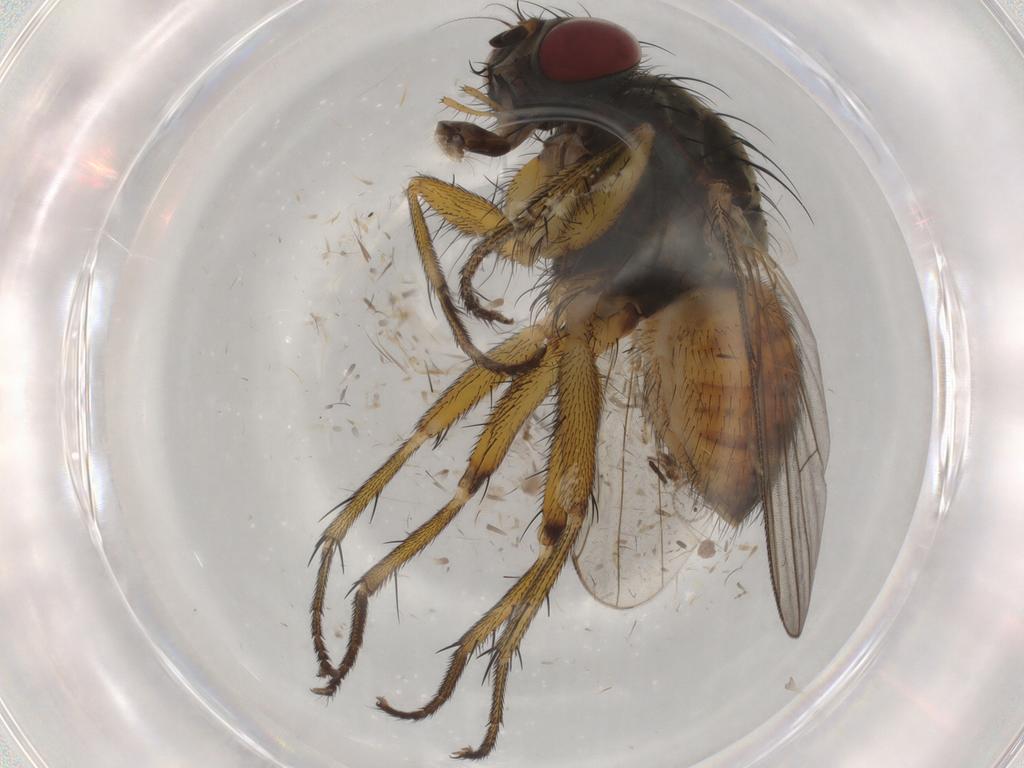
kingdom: Animalia
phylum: Arthropoda
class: Insecta
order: Diptera
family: Muscidae
